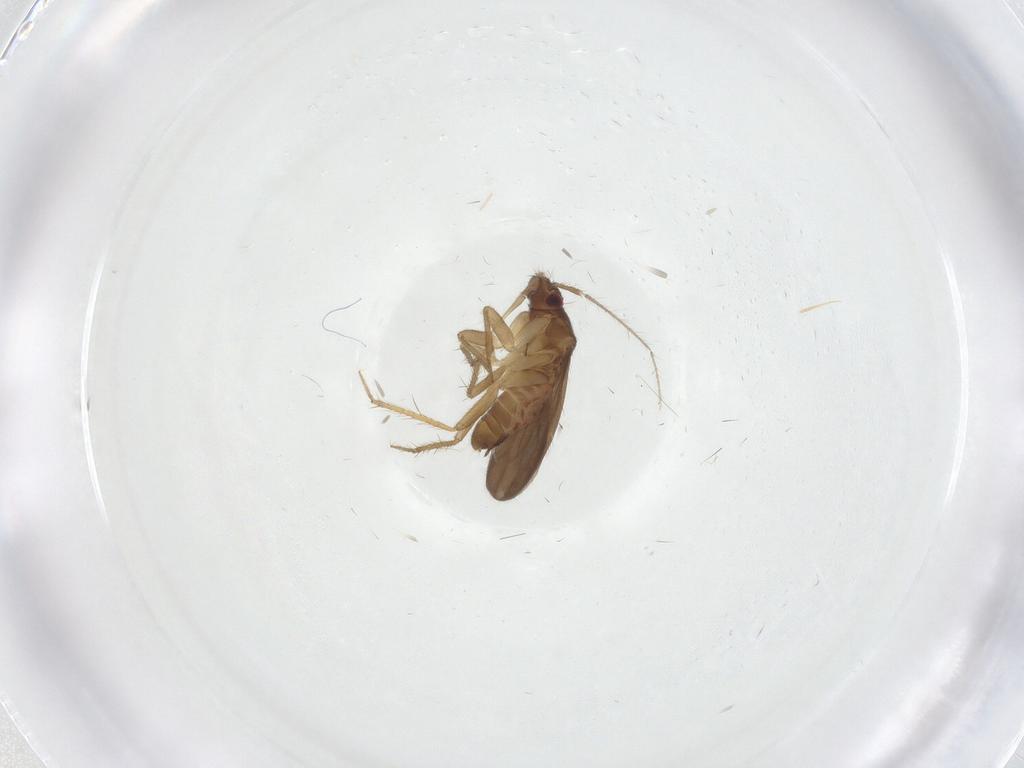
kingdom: Animalia
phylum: Arthropoda
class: Insecta
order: Hemiptera
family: Ceratocombidae
